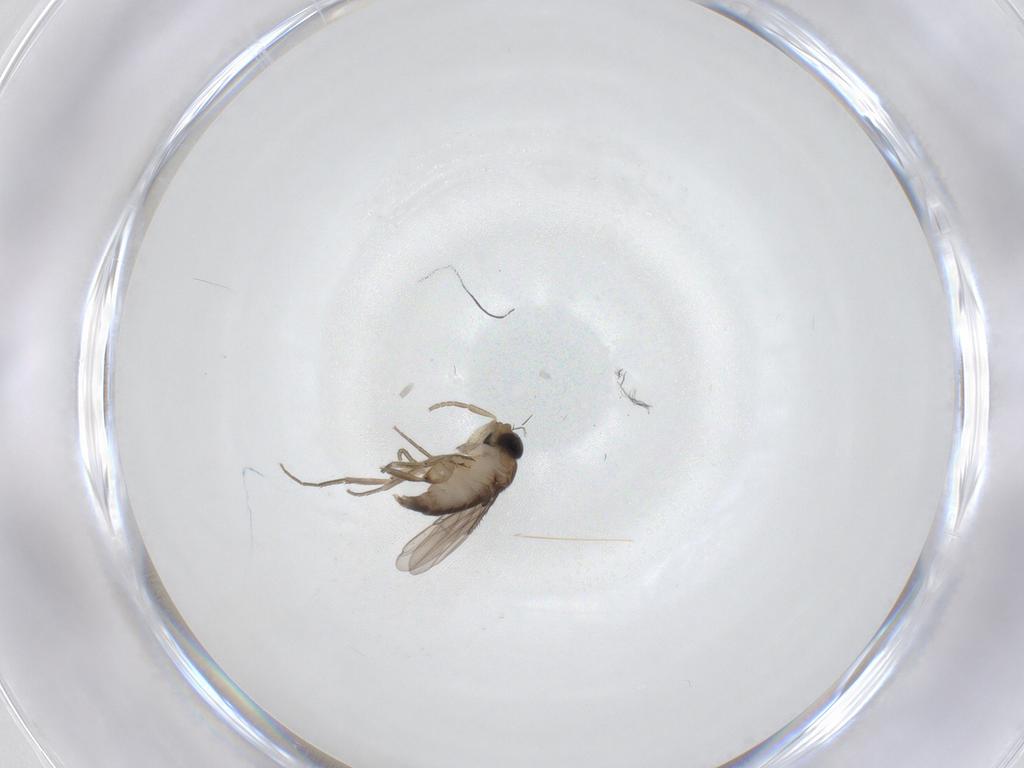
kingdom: Animalia
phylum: Arthropoda
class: Insecta
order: Diptera
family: Phoridae
